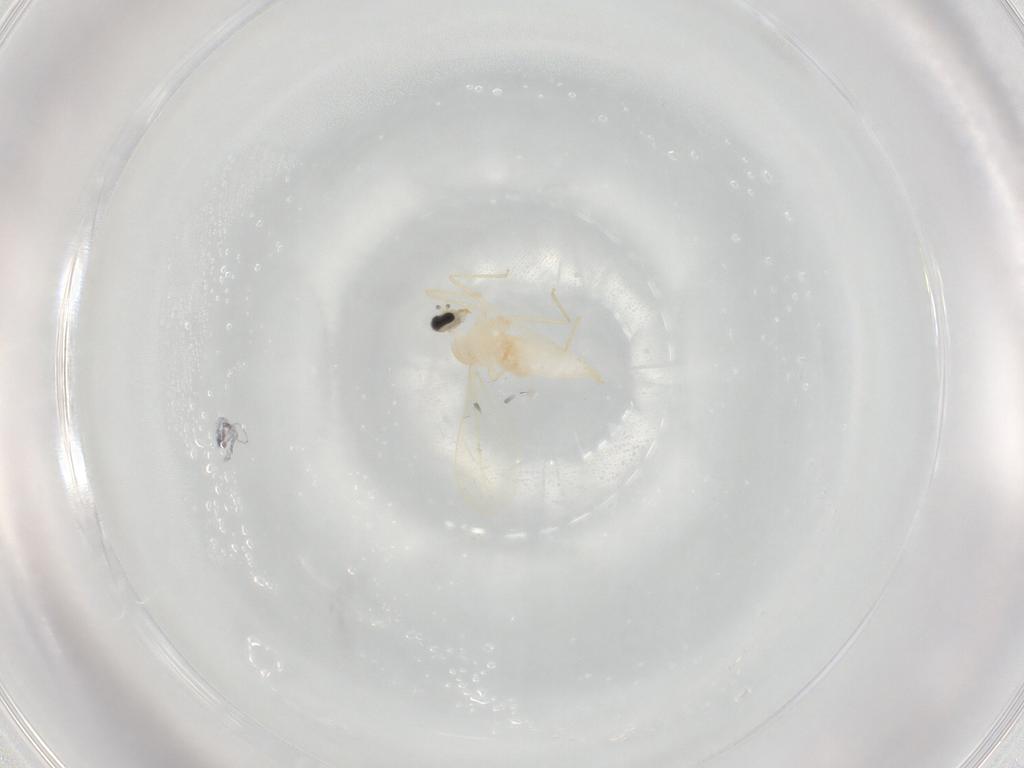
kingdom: Animalia
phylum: Arthropoda
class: Insecta
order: Diptera
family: Cecidomyiidae
